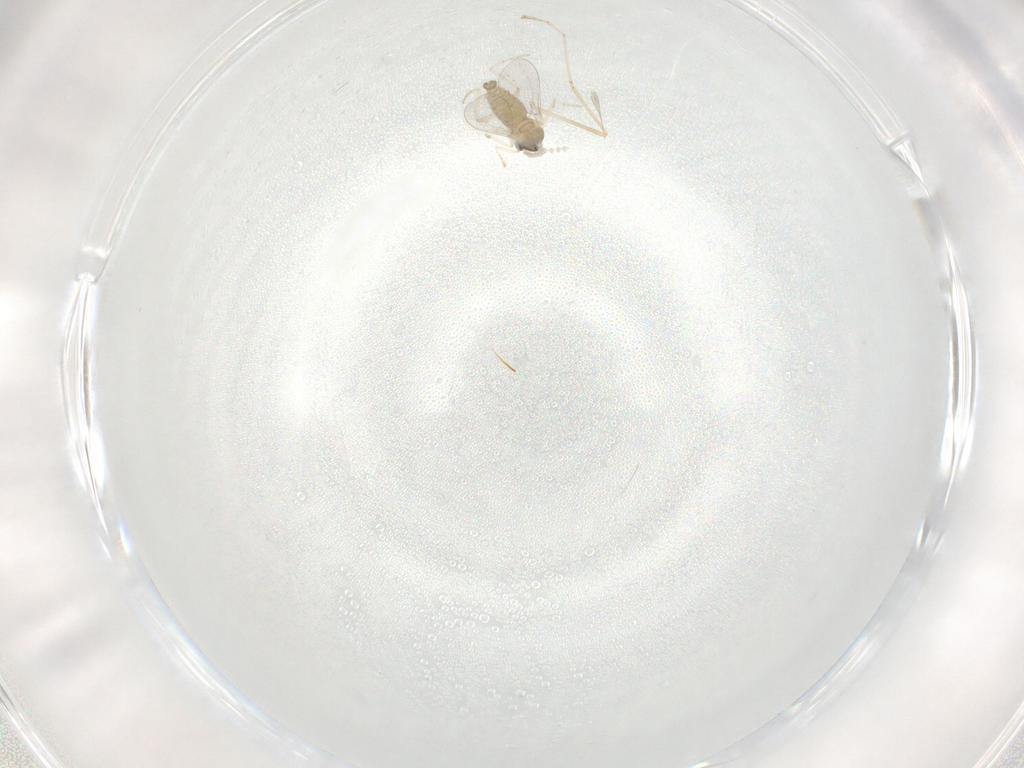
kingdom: Animalia
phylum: Arthropoda
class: Insecta
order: Diptera
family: Cecidomyiidae
